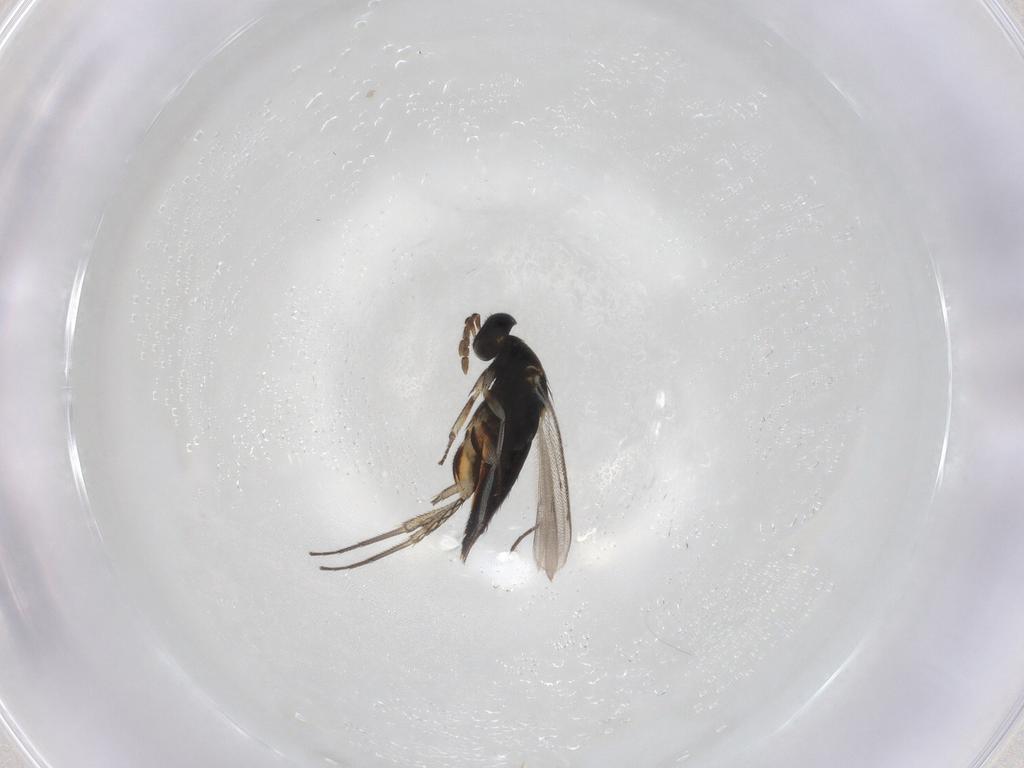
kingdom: Animalia
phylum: Arthropoda
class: Insecta
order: Hymenoptera
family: Eulophidae
